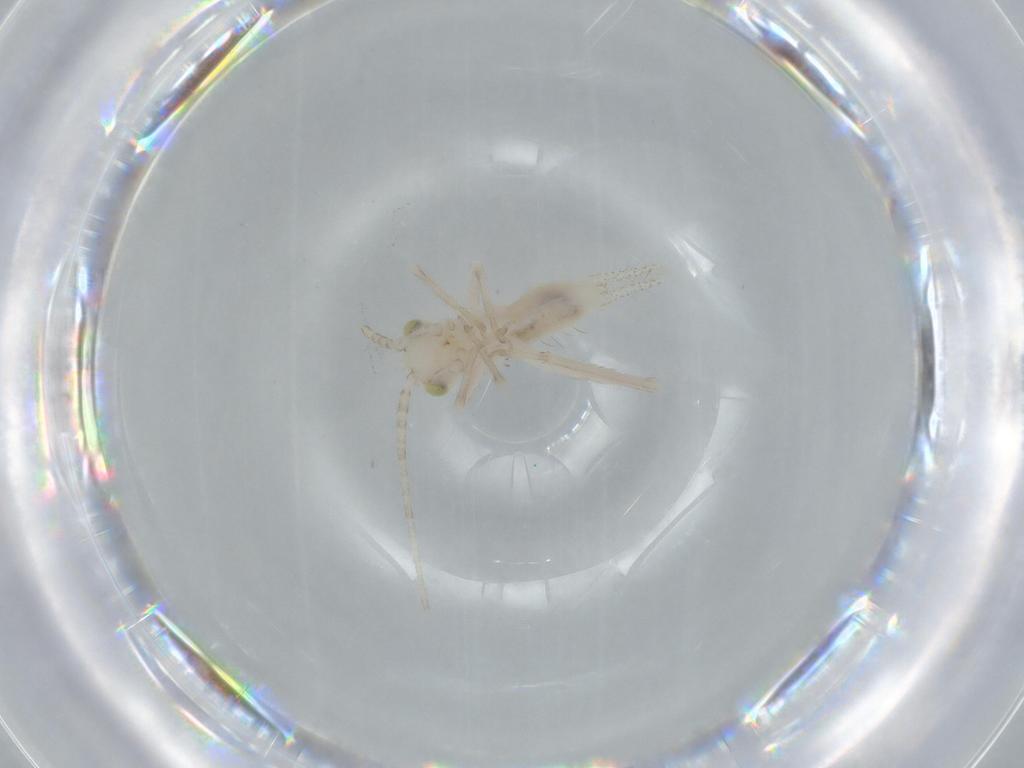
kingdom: Animalia
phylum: Arthropoda
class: Insecta
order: Orthoptera
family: Trigonidiidae
